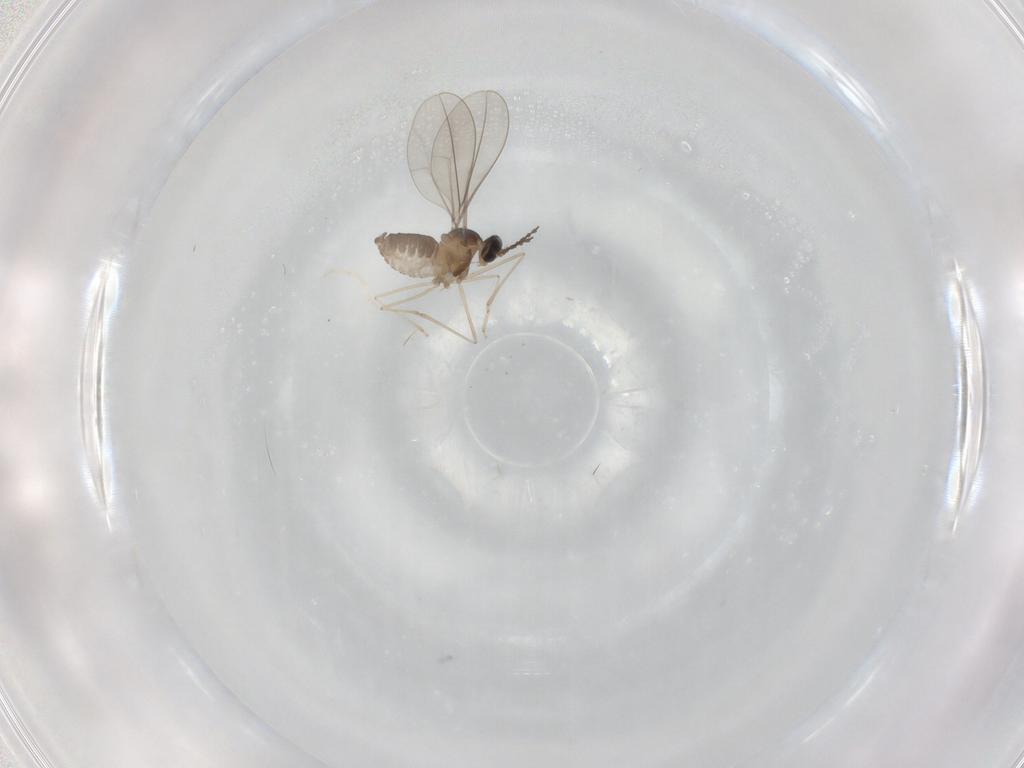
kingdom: Animalia
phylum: Arthropoda
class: Insecta
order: Diptera
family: Cecidomyiidae
